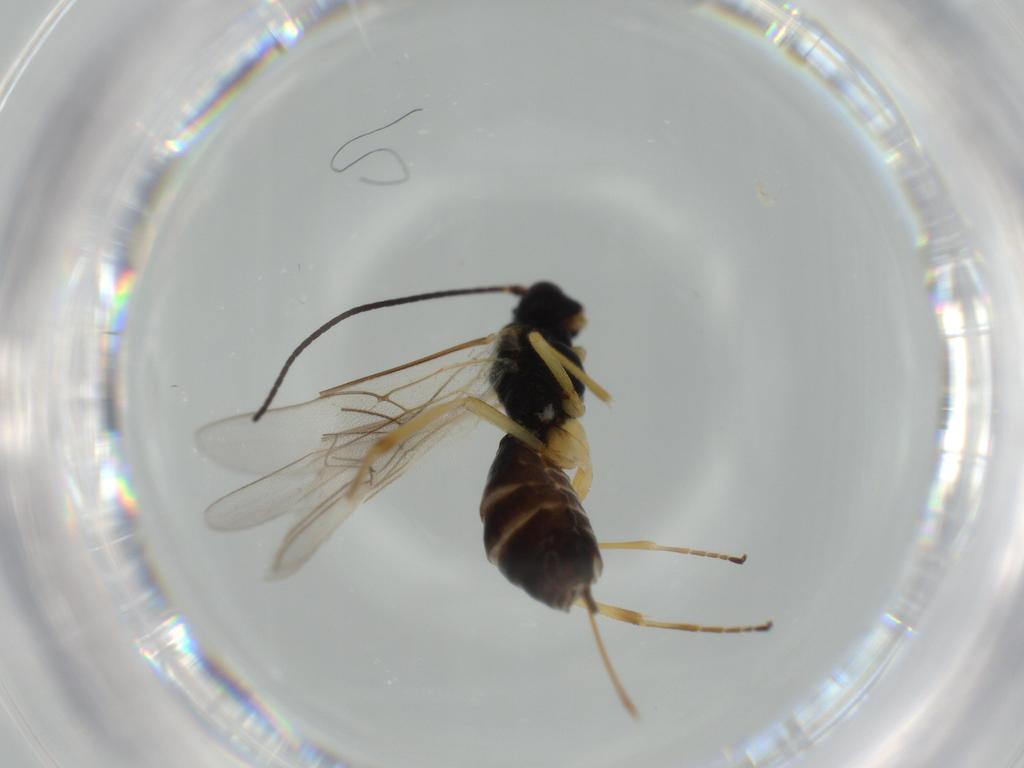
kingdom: Animalia
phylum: Arthropoda
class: Insecta
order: Hymenoptera
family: Braconidae
